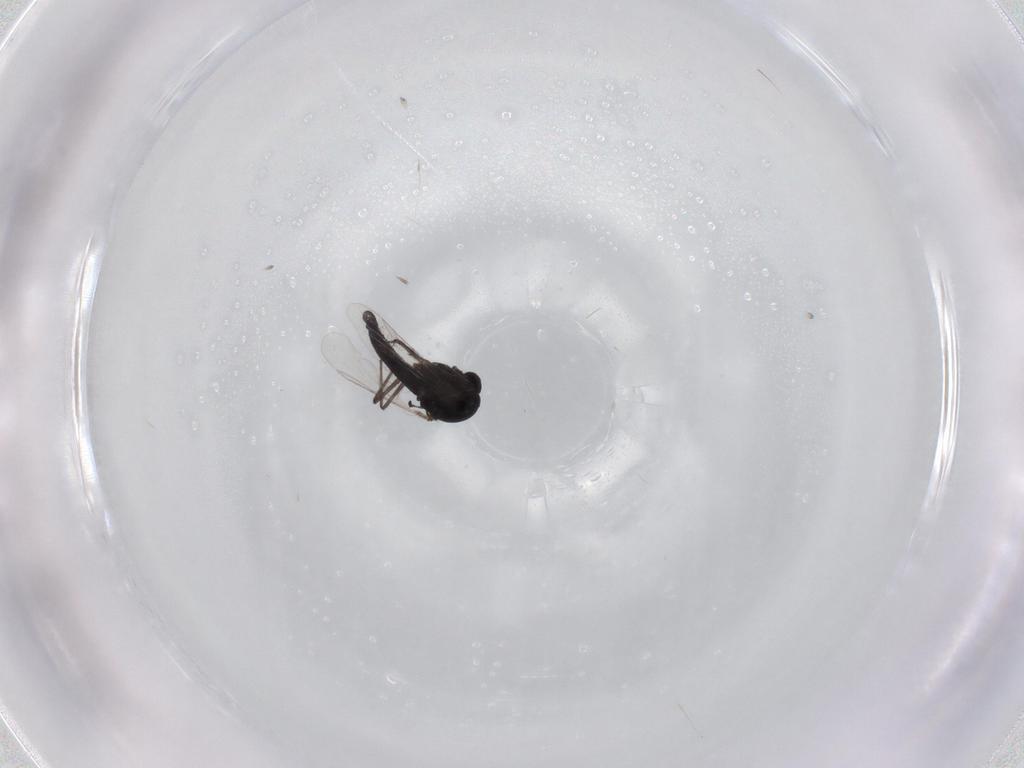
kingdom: Animalia
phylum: Arthropoda
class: Insecta
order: Diptera
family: Chironomidae
